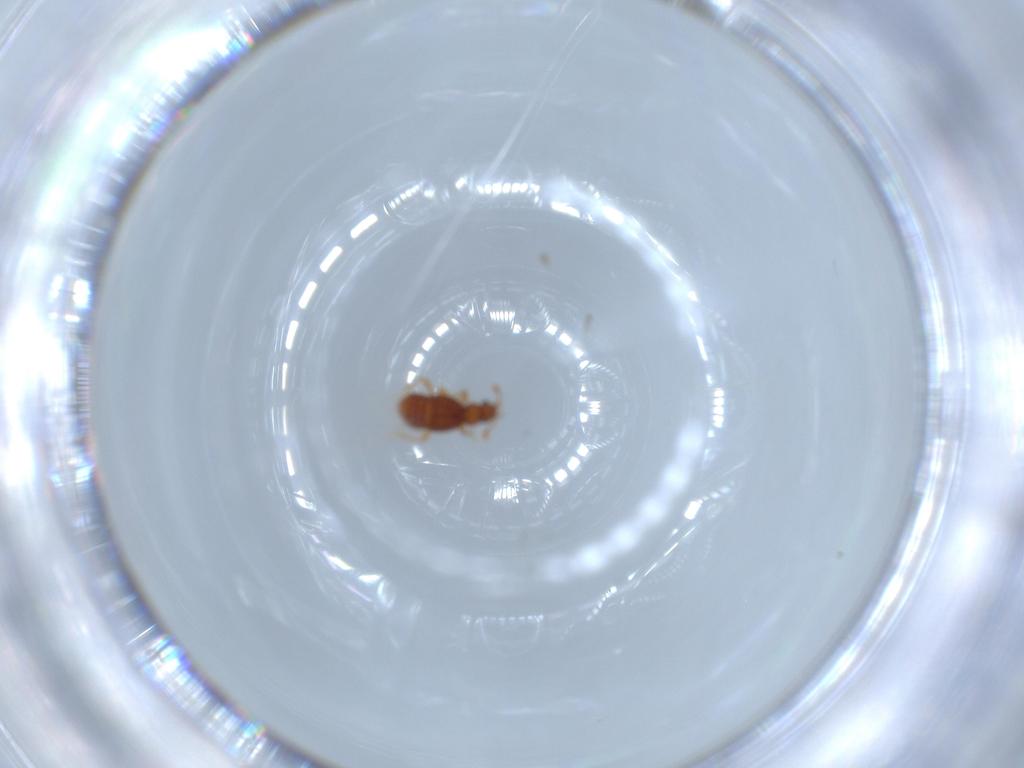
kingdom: Animalia
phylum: Arthropoda
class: Insecta
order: Coleoptera
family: Staphylinidae
